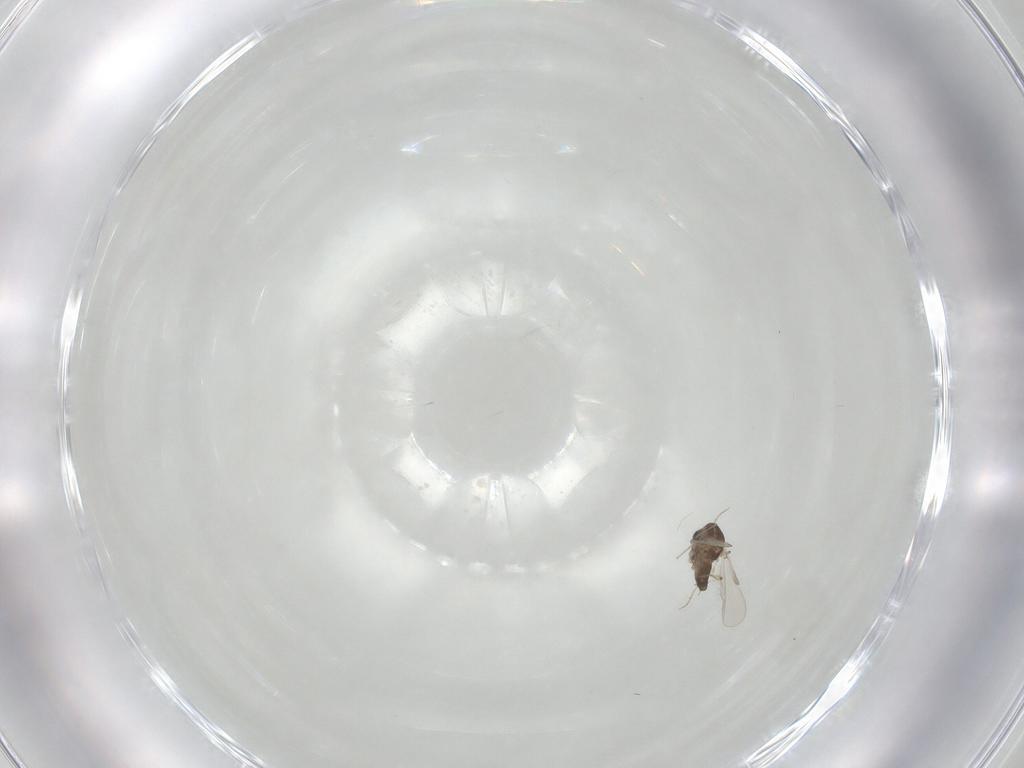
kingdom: Animalia
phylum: Arthropoda
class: Insecta
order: Diptera
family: Chironomidae
